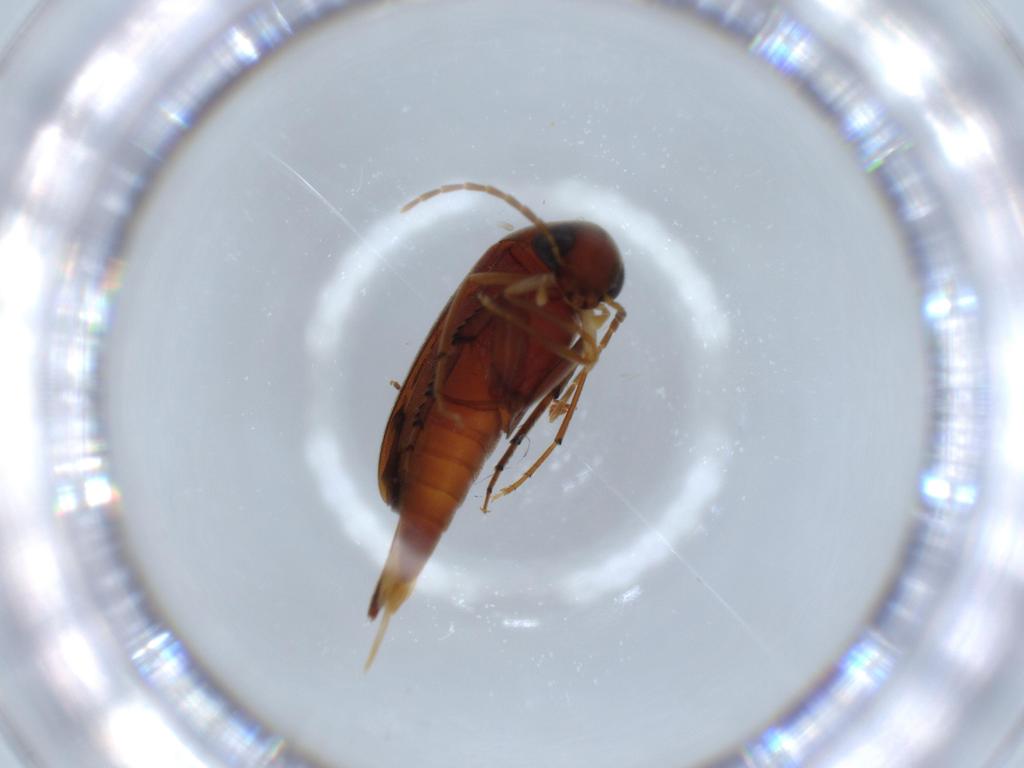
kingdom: Animalia
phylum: Arthropoda
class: Insecta
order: Coleoptera
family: Oedemeridae
